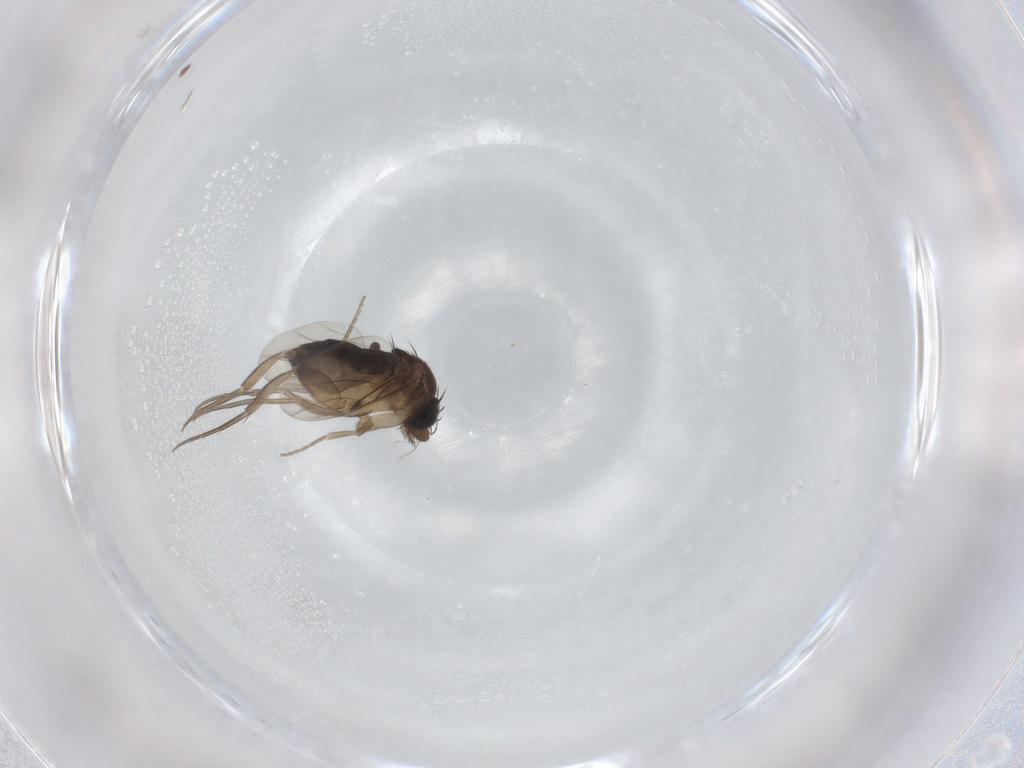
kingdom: Animalia
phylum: Arthropoda
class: Insecta
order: Diptera
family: Phoridae
